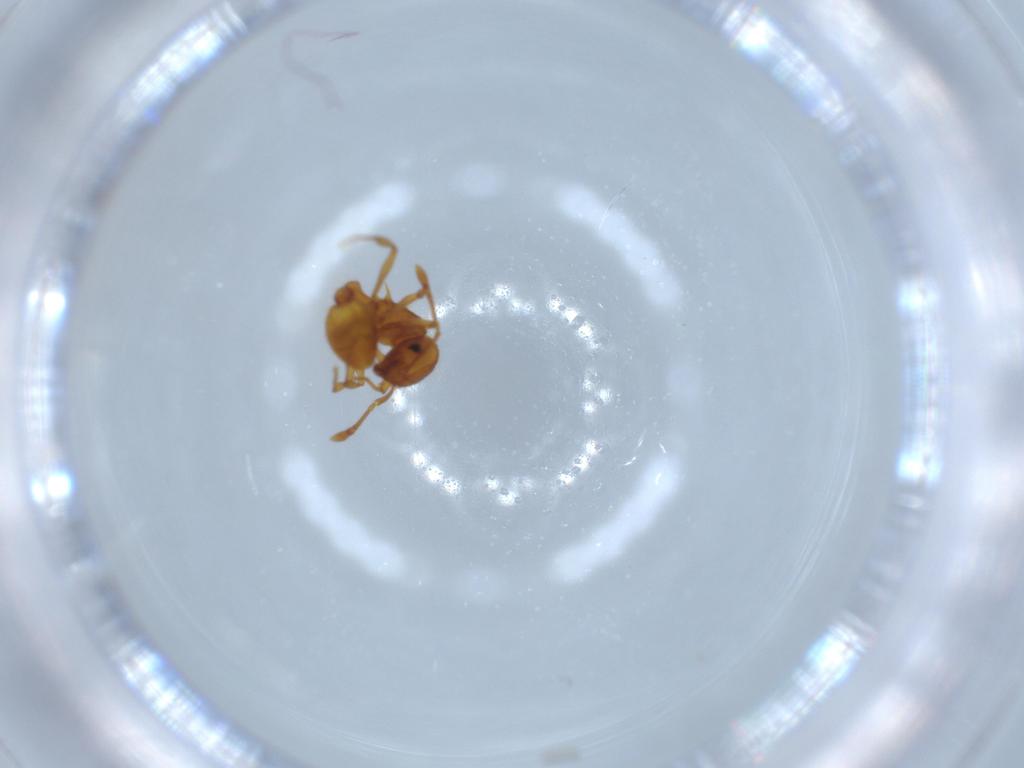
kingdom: Animalia
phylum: Arthropoda
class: Insecta
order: Hymenoptera
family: Formicidae
